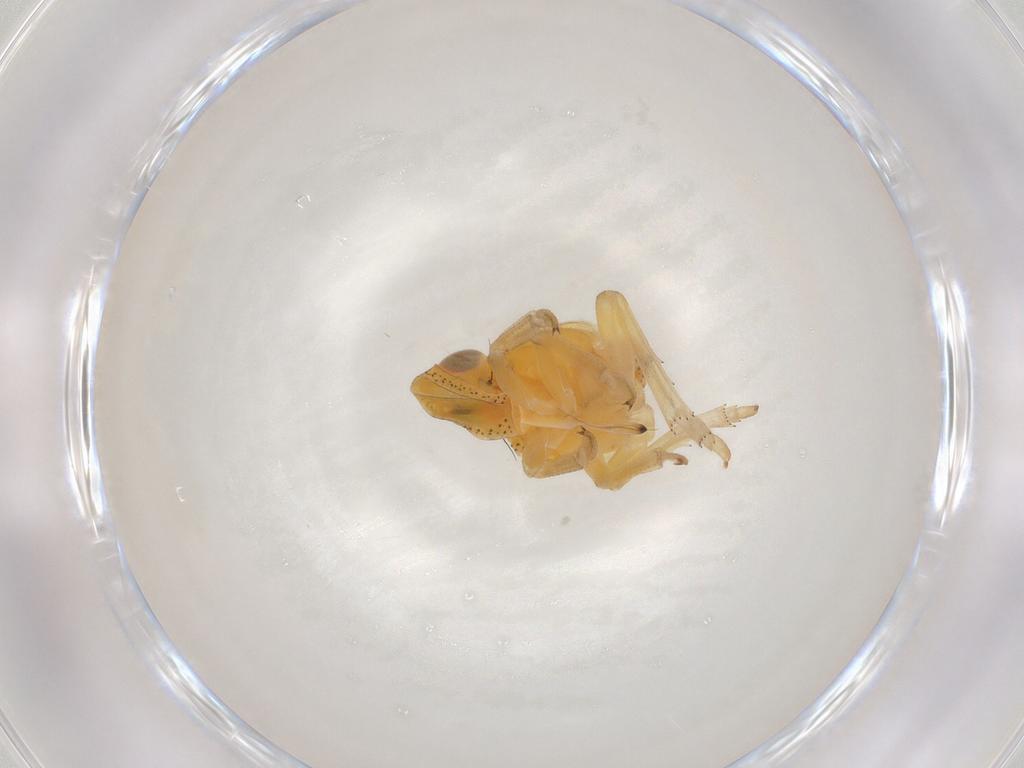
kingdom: Animalia
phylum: Arthropoda
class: Insecta
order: Hemiptera
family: Tropiduchidae
